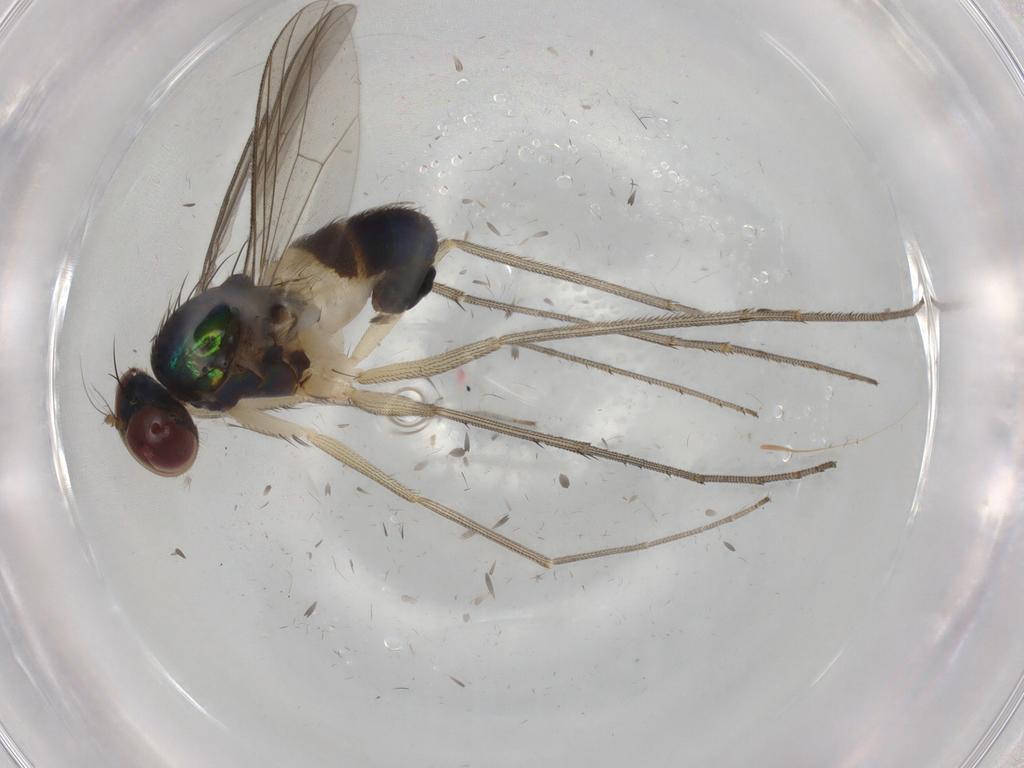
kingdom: Animalia
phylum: Arthropoda
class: Insecta
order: Diptera
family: Dolichopodidae
